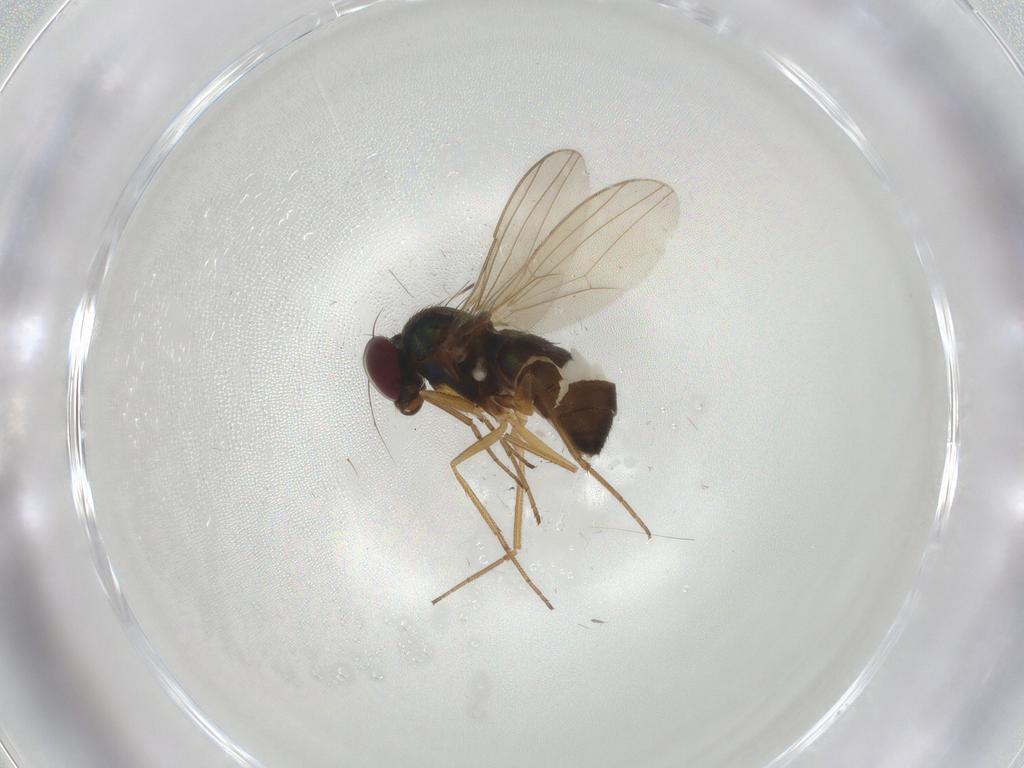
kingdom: Animalia
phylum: Arthropoda
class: Insecta
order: Diptera
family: Dolichopodidae
